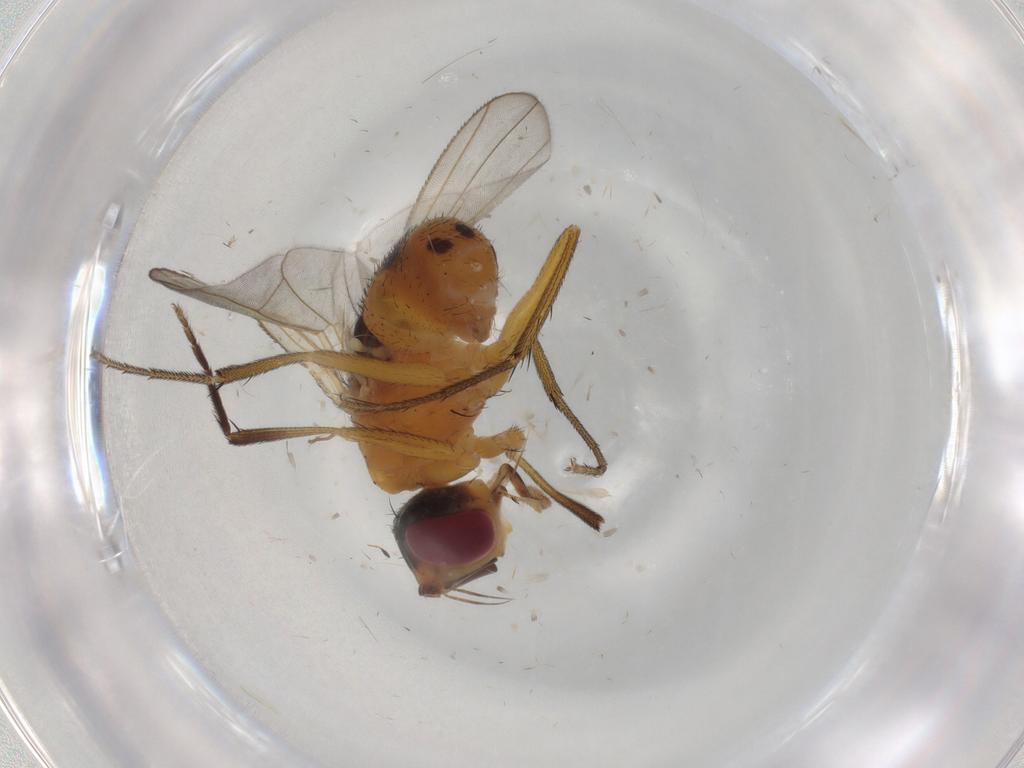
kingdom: Animalia
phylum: Arthropoda
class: Insecta
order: Diptera
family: Muscidae
